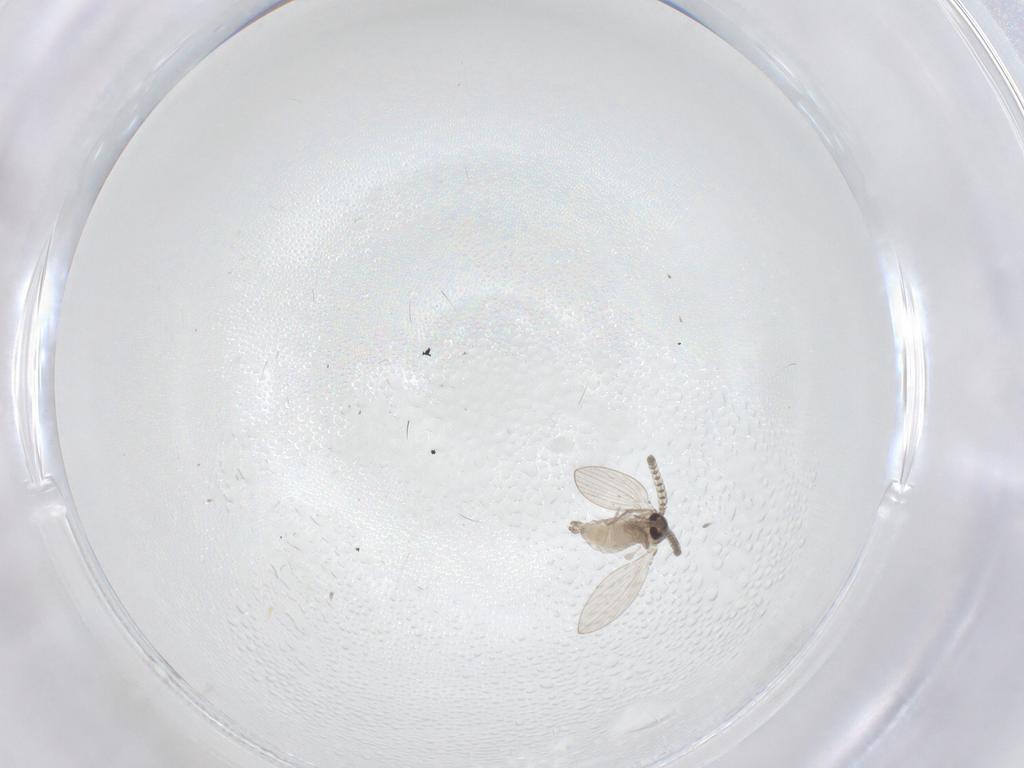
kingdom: Animalia
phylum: Arthropoda
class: Insecta
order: Diptera
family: Psychodidae
